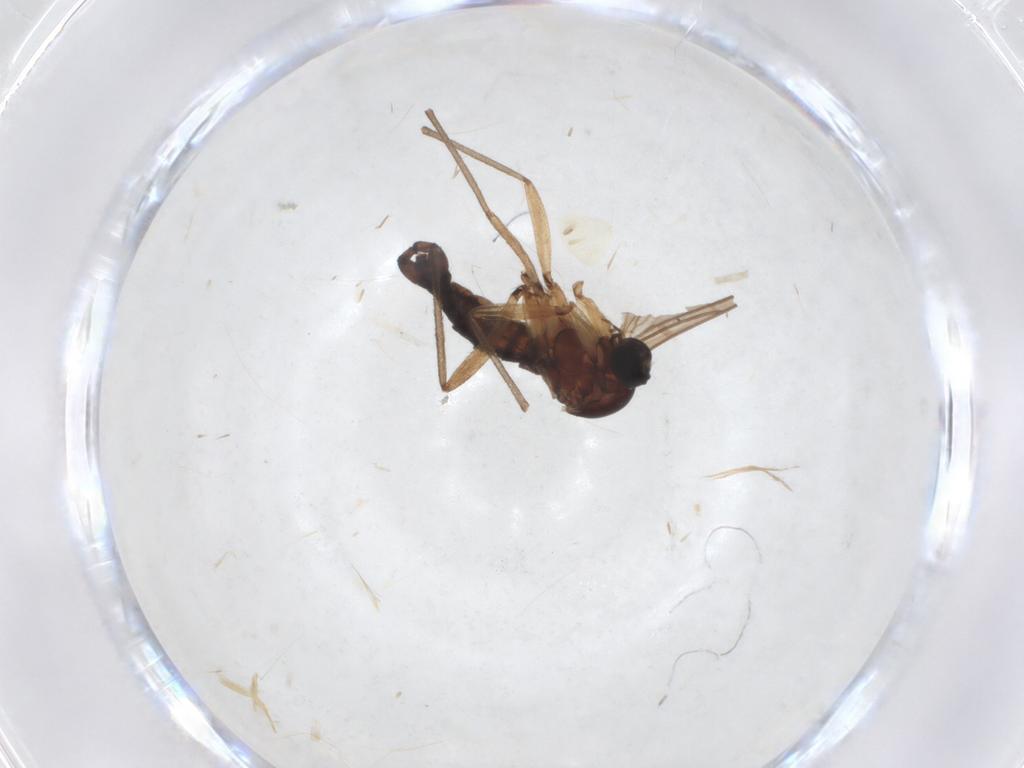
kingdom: Animalia
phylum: Arthropoda
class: Insecta
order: Diptera
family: Sciaridae
